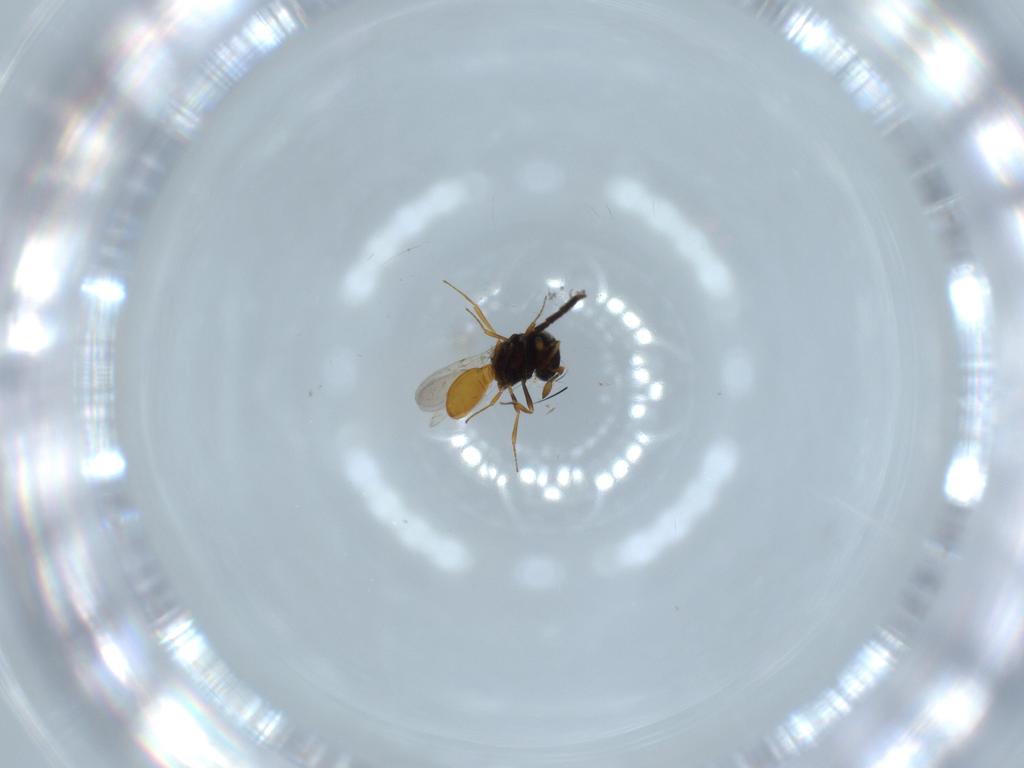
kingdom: Animalia
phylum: Arthropoda
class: Insecta
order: Hymenoptera
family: Scelionidae
